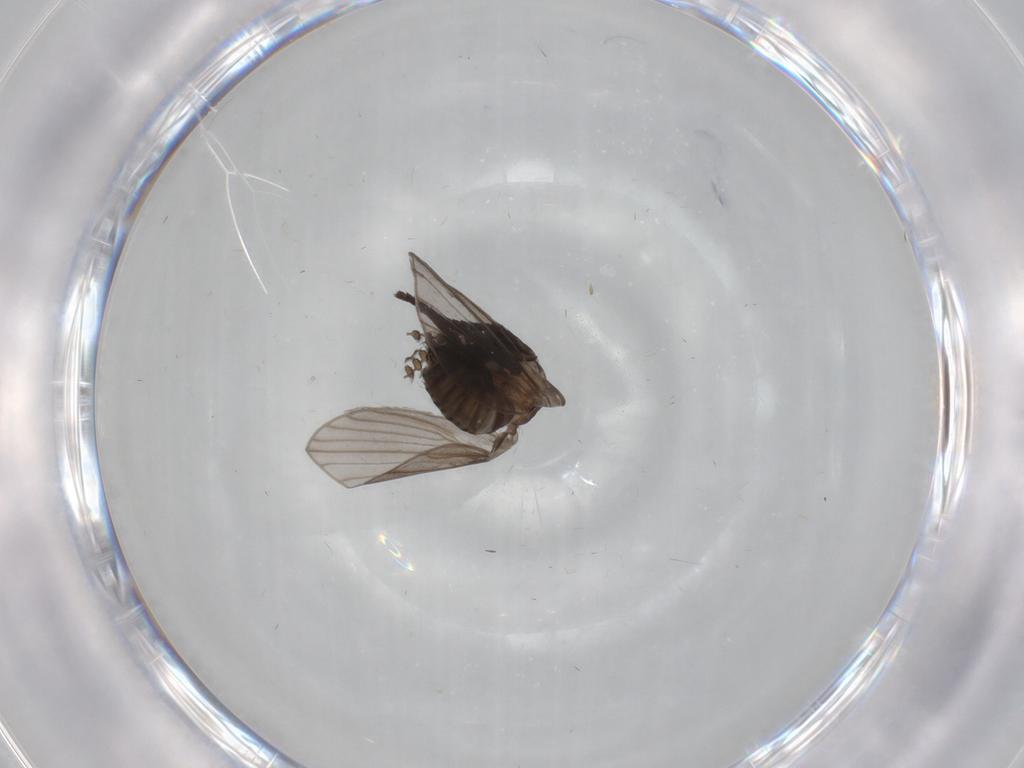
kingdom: Animalia
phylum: Arthropoda
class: Insecta
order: Diptera
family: Psychodidae
